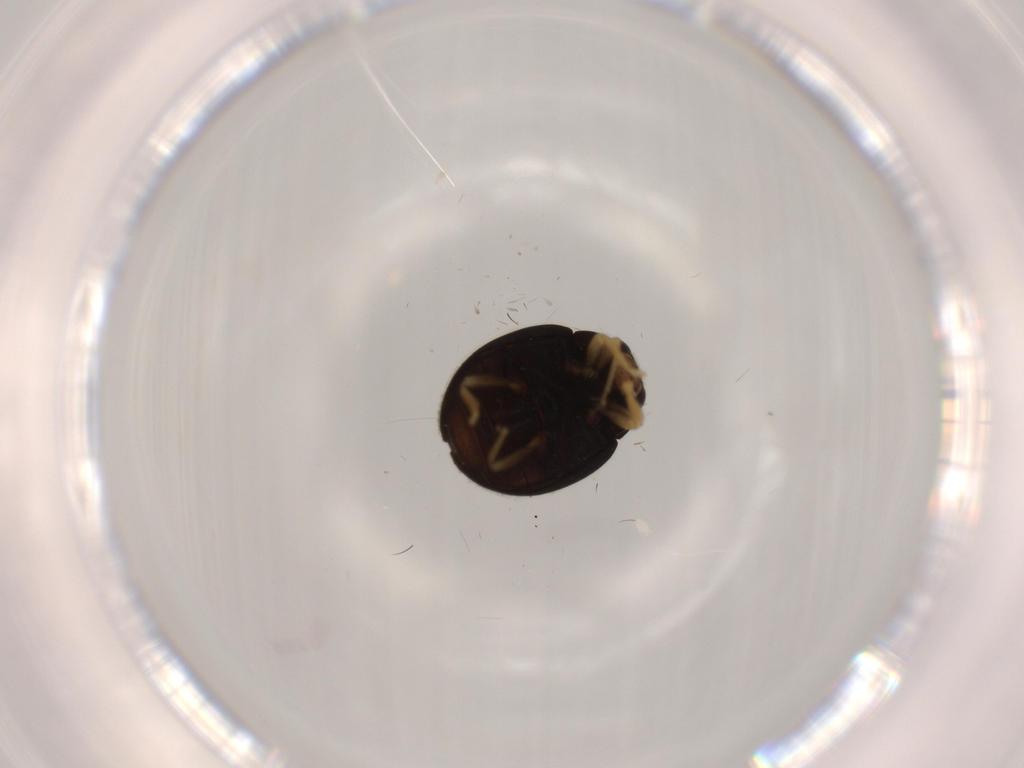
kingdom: Animalia
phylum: Arthropoda
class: Insecta
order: Coleoptera
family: Coccinellidae
